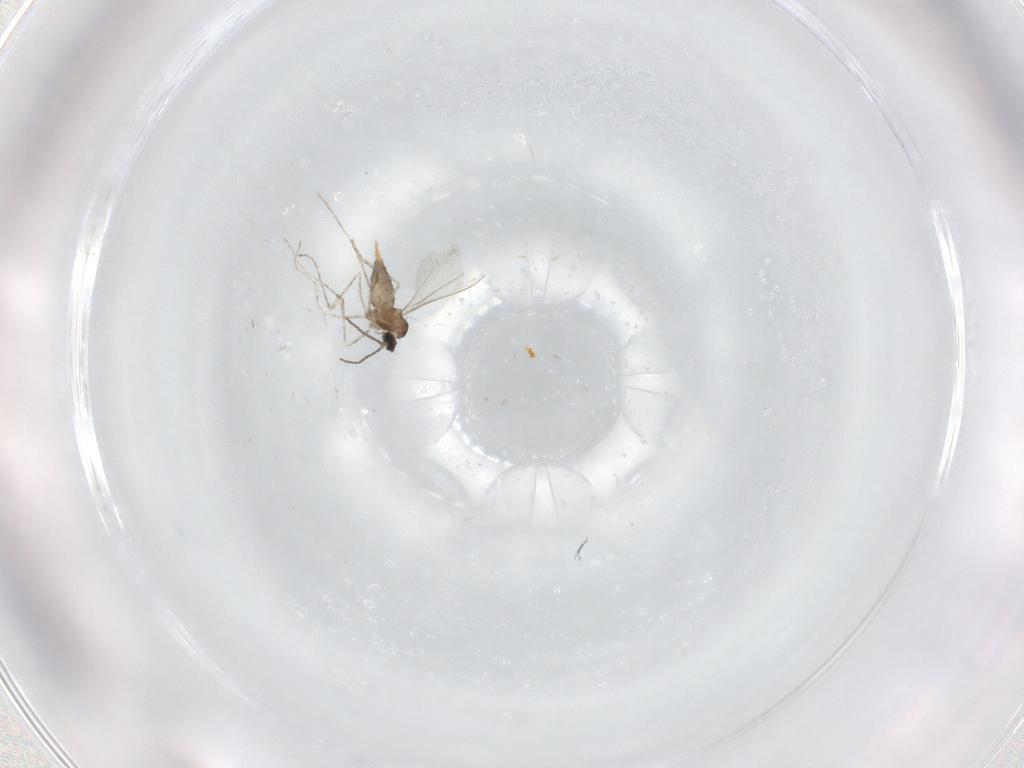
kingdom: Animalia
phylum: Arthropoda
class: Insecta
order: Diptera
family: Cecidomyiidae
